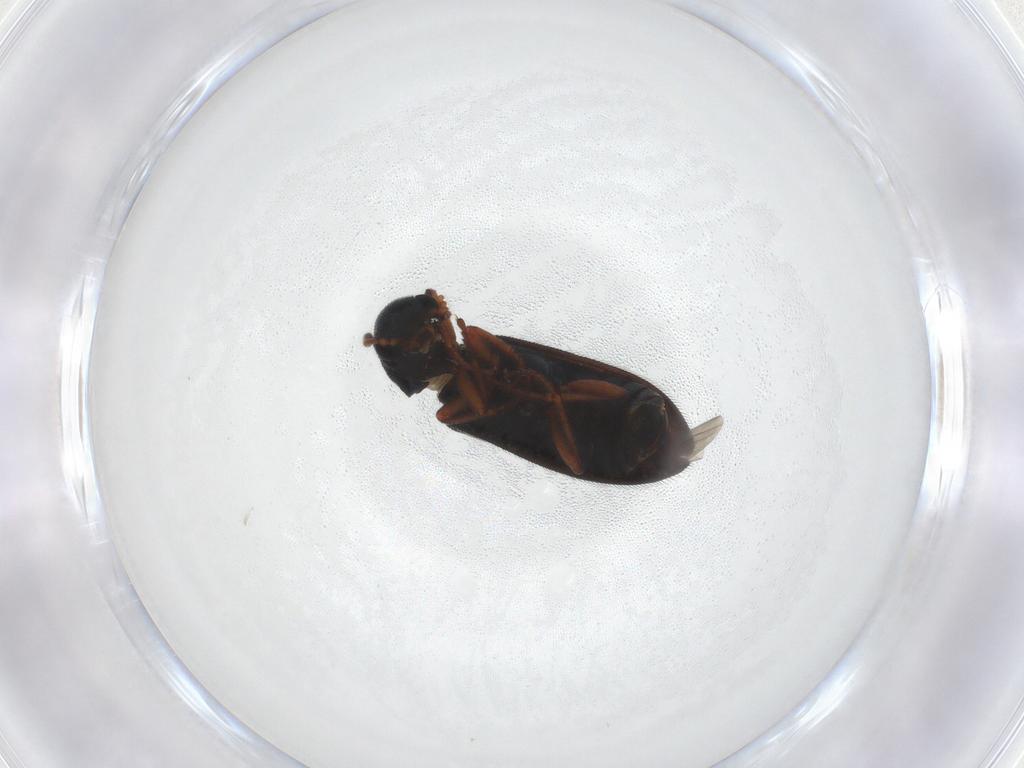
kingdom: Animalia
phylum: Arthropoda
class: Insecta
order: Coleoptera
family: Melyridae
